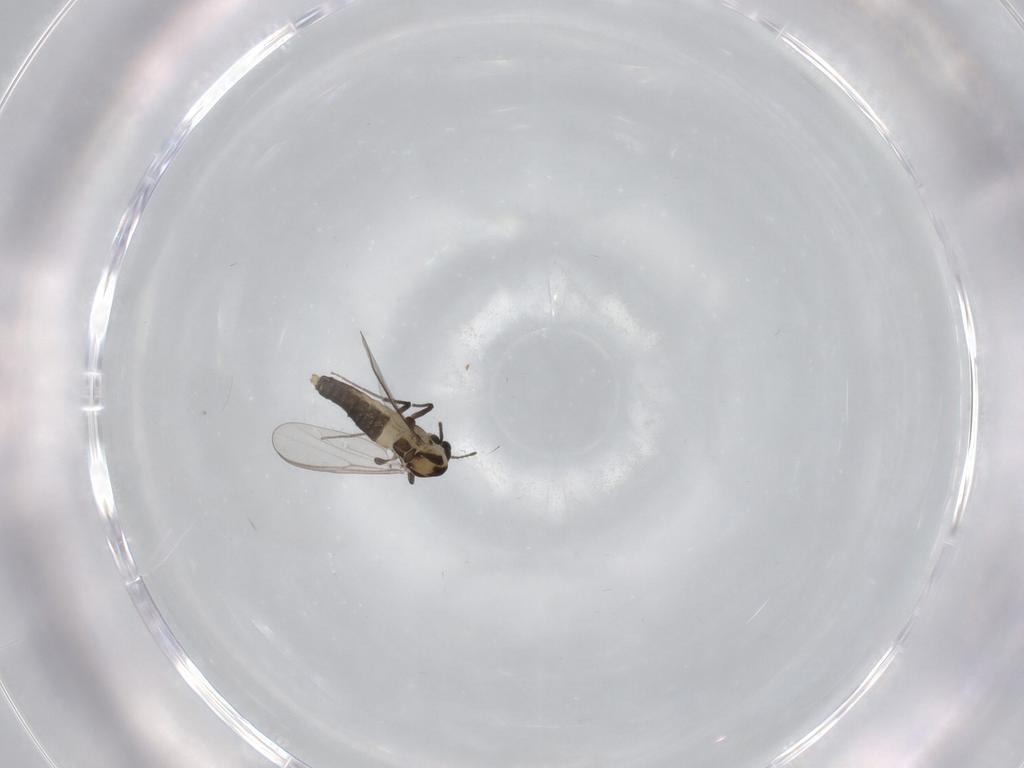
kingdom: Animalia
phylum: Arthropoda
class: Insecta
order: Diptera
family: Chironomidae
